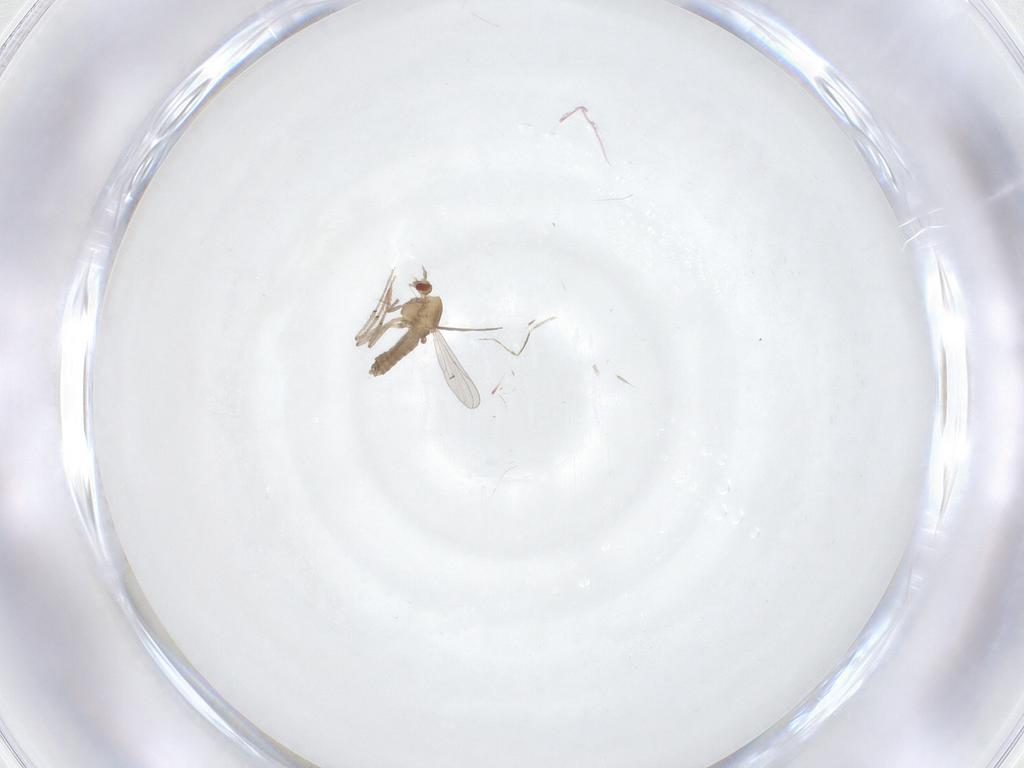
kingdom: Animalia
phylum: Arthropoda
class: Insecta
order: Diptera
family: Chironomidae
